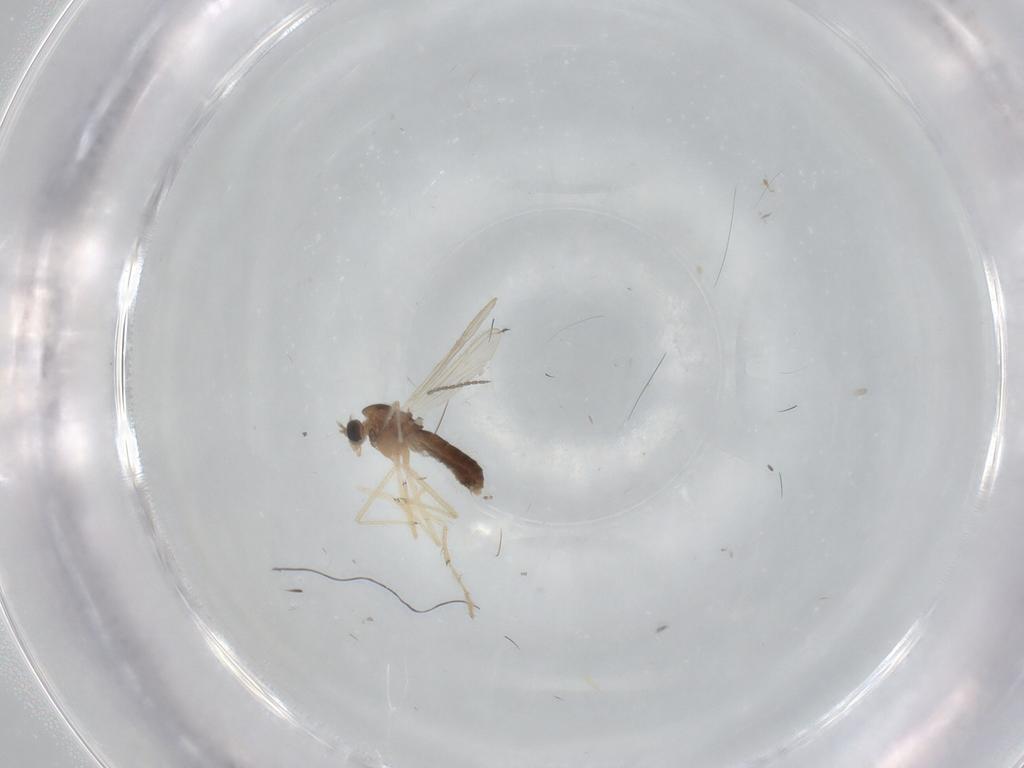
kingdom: Animalia
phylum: Arthropoda
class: Insecta
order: Diptera
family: Chironomidae
